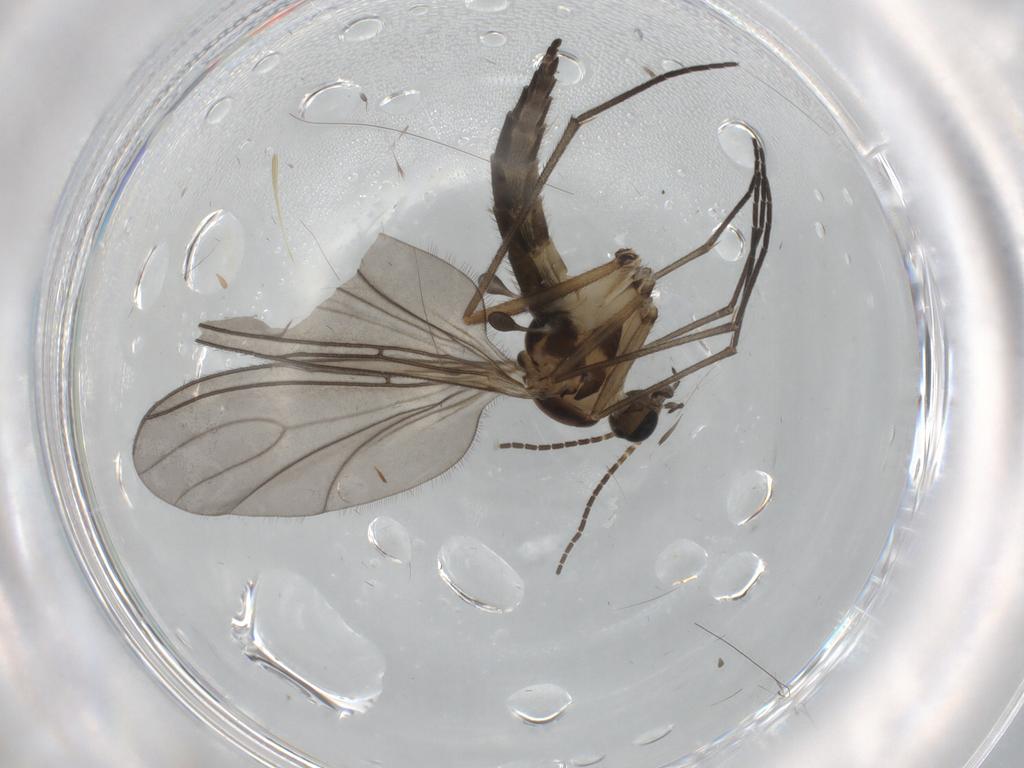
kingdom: Animalia
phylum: Arthropoda
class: Insecta
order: Diptera
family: Sciaridae
